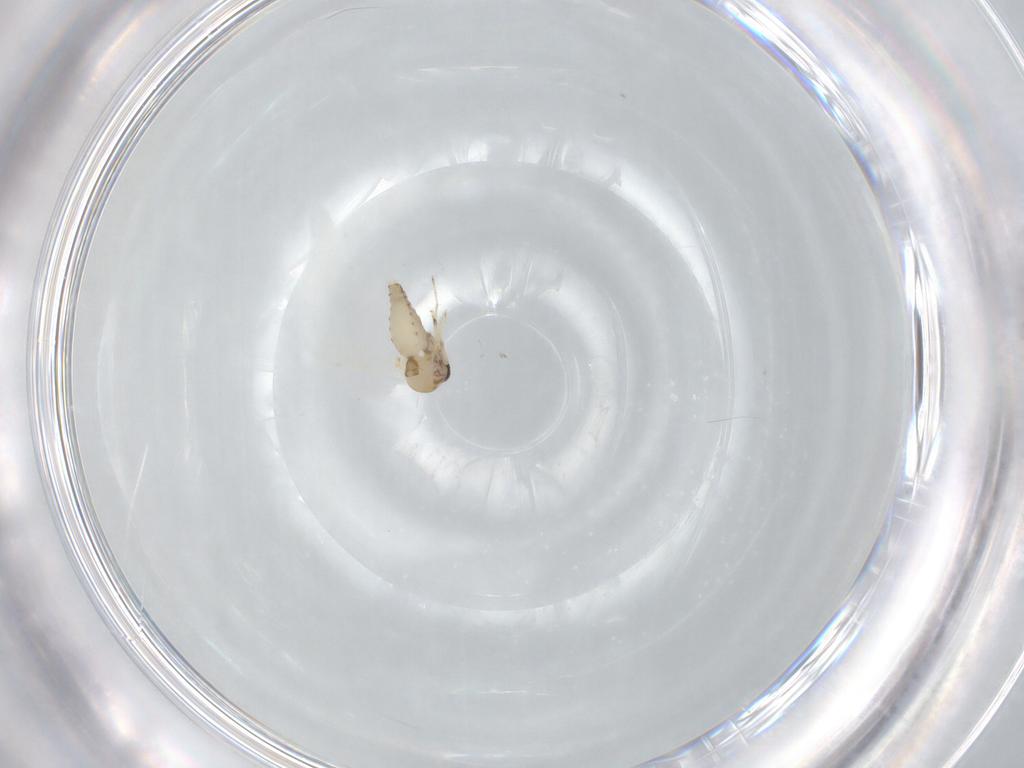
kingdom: Animalia
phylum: Arthropoda
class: Insecta
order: Diptera
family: Ceratopogonidae
